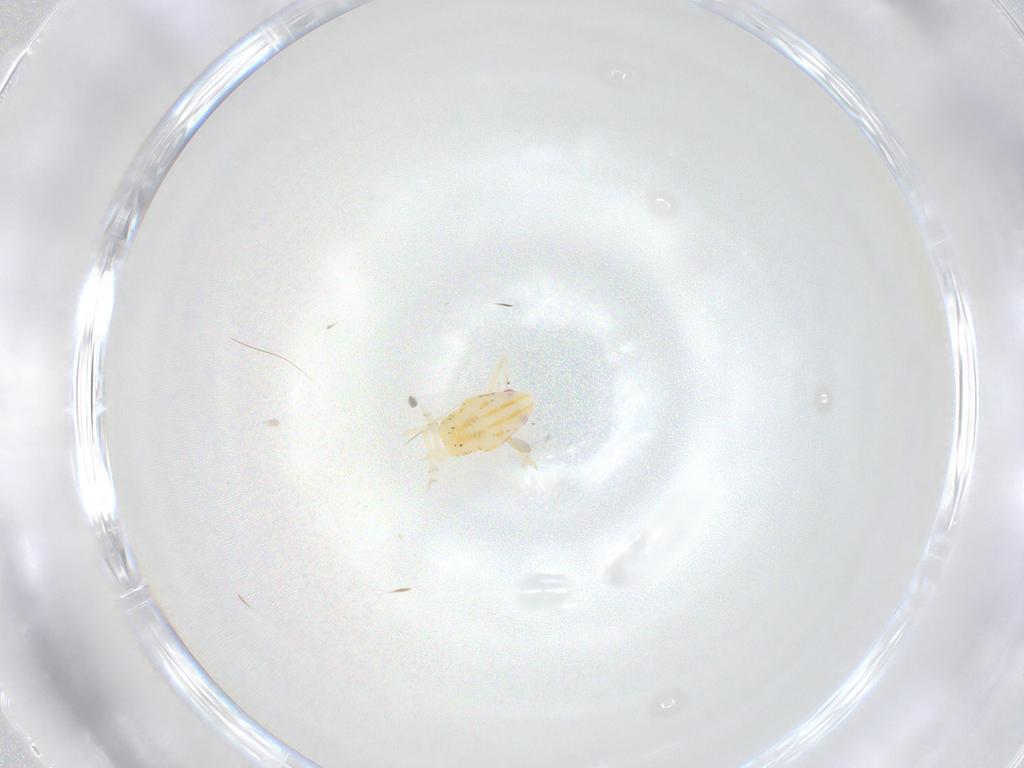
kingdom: Animalia
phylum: Arthropoda
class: Insecta
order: Hemiptera
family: Flatidae
